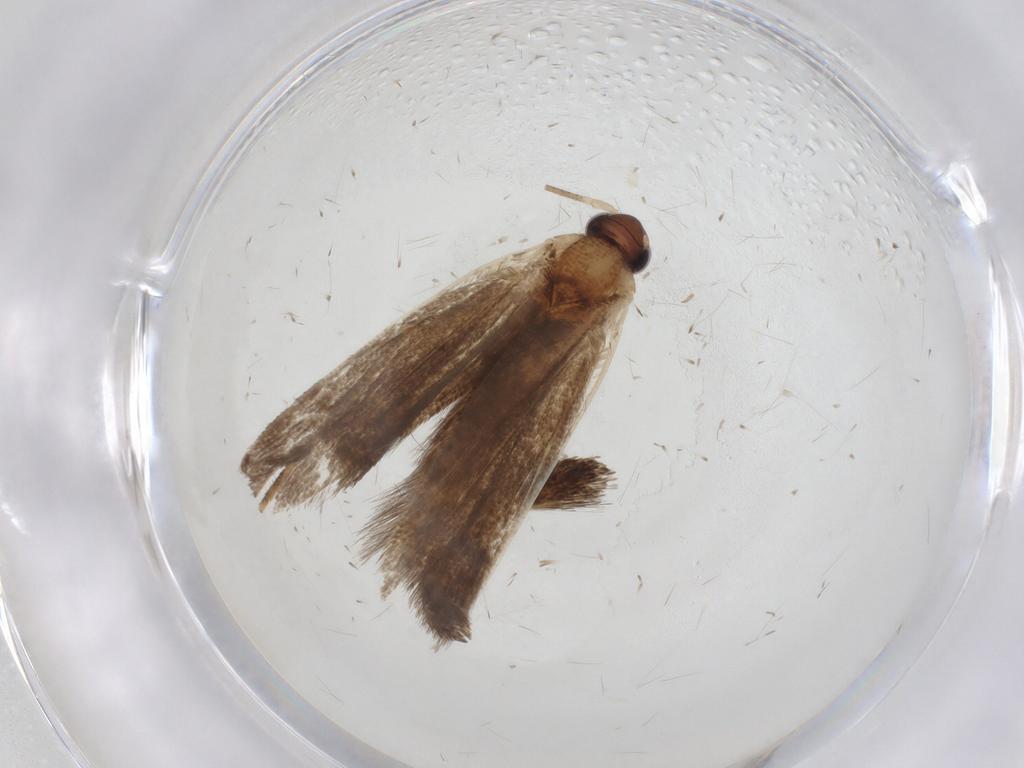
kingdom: Animalia
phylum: Arthropoda
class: Insecta
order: Lepidoptera
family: Yponomeutidae
